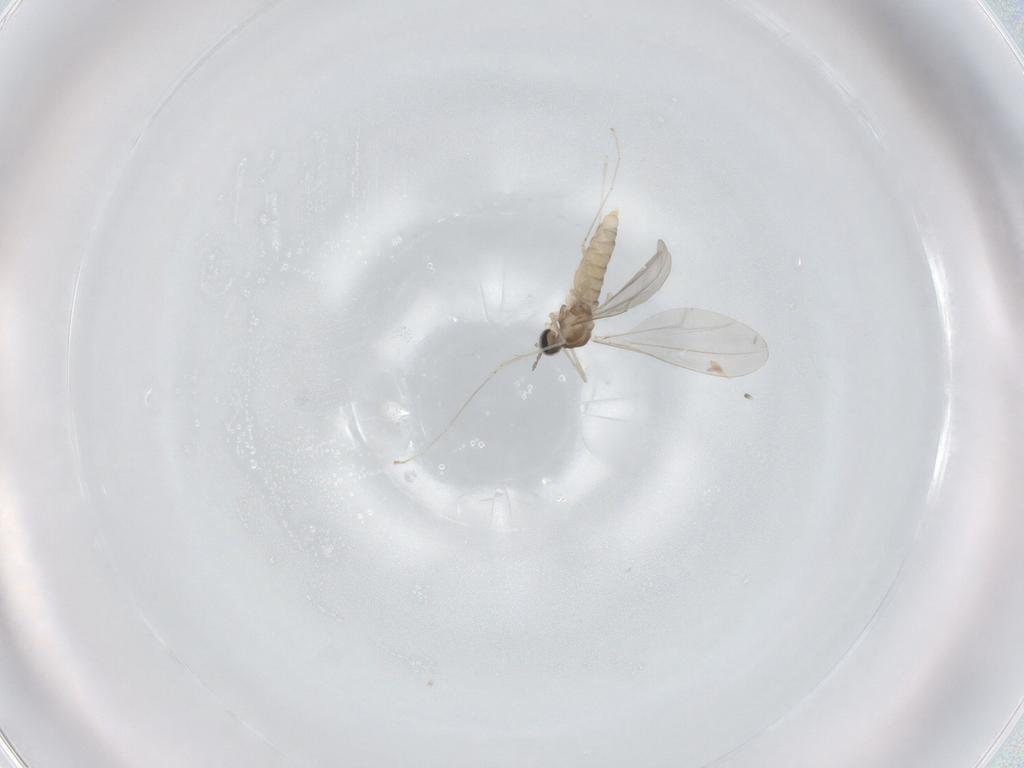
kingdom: Animalia
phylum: Arthropoda
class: Insecta
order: Diptera
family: Cecidomyiidae
